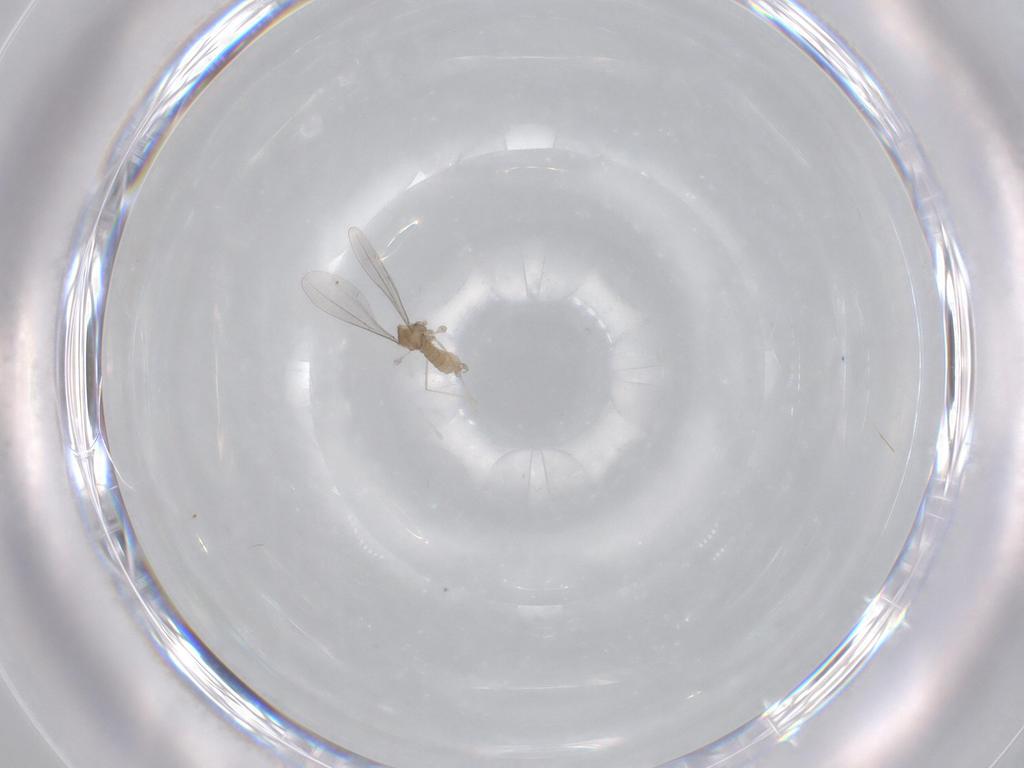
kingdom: Animalia
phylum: Arthropoda
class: Insecta
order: Diptera
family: Cecidomyiidae
